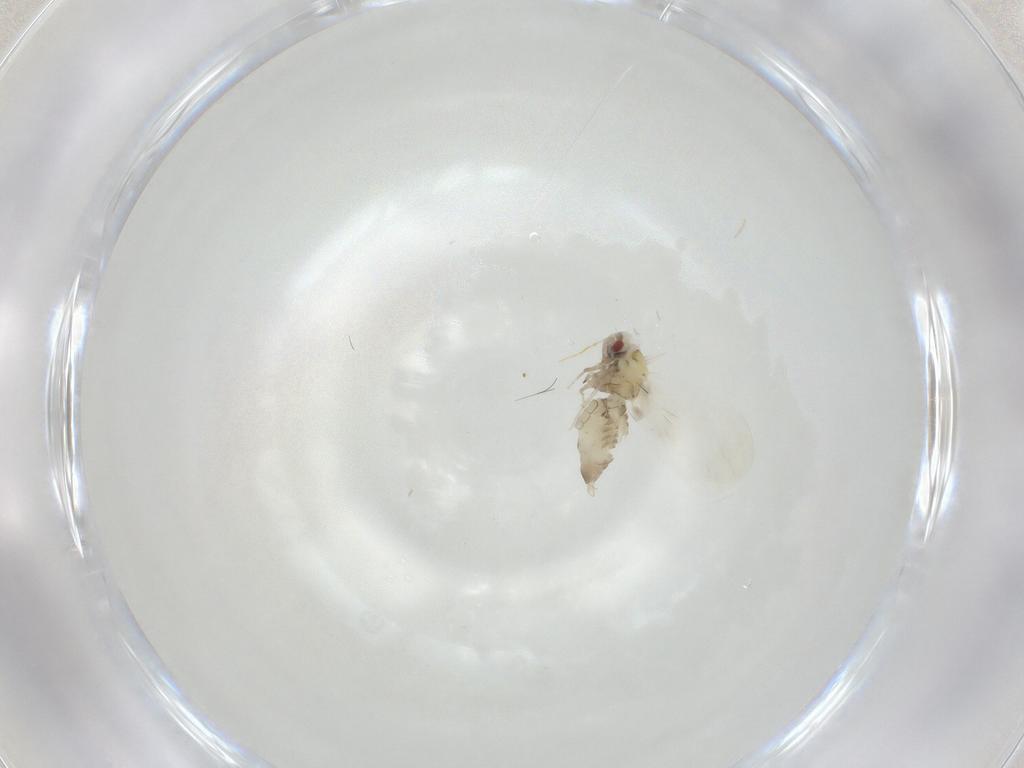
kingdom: Animalia
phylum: Arthropoda
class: Insecta
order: Hemiptera
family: Aleyrodidae
